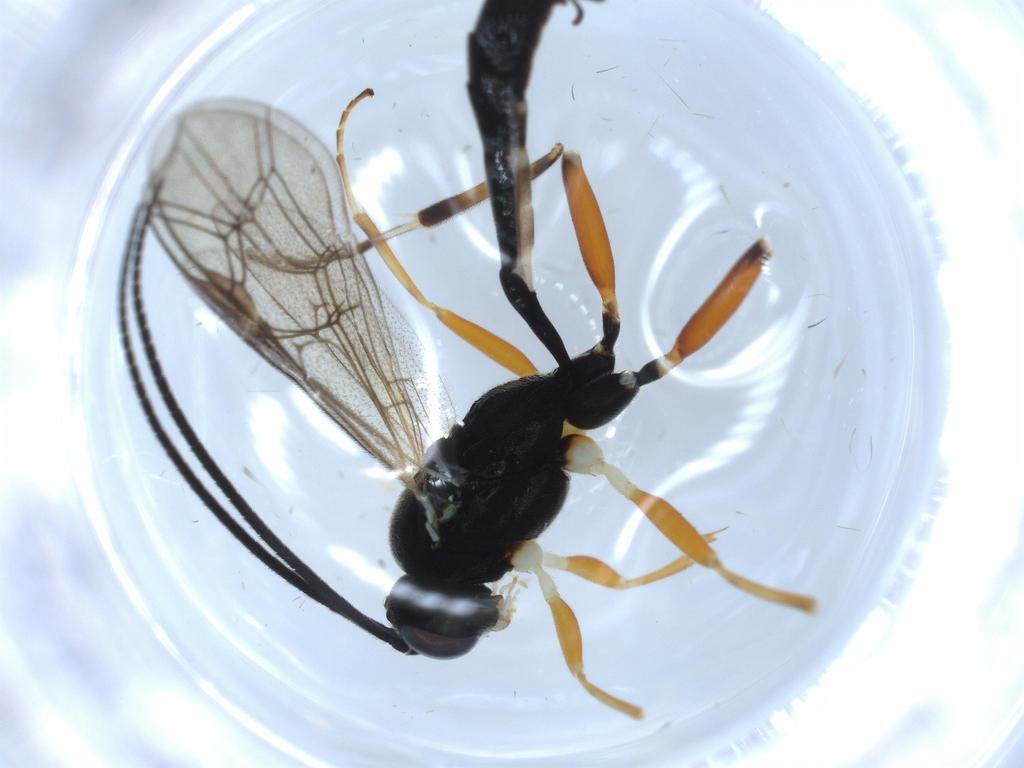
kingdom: Animalia
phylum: Arthropoda
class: Insecta
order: Hymenoptera
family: Ichneumonidae
